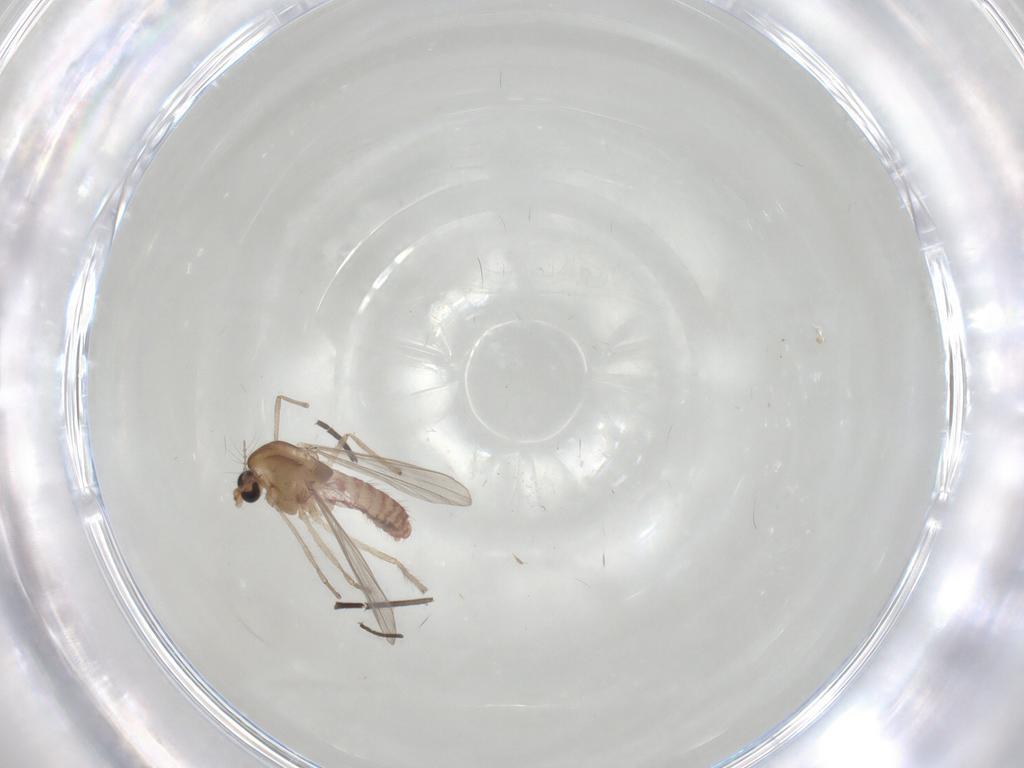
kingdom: Animalia
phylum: Arthropoda
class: Insecta
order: Diptera
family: Chironomidae
